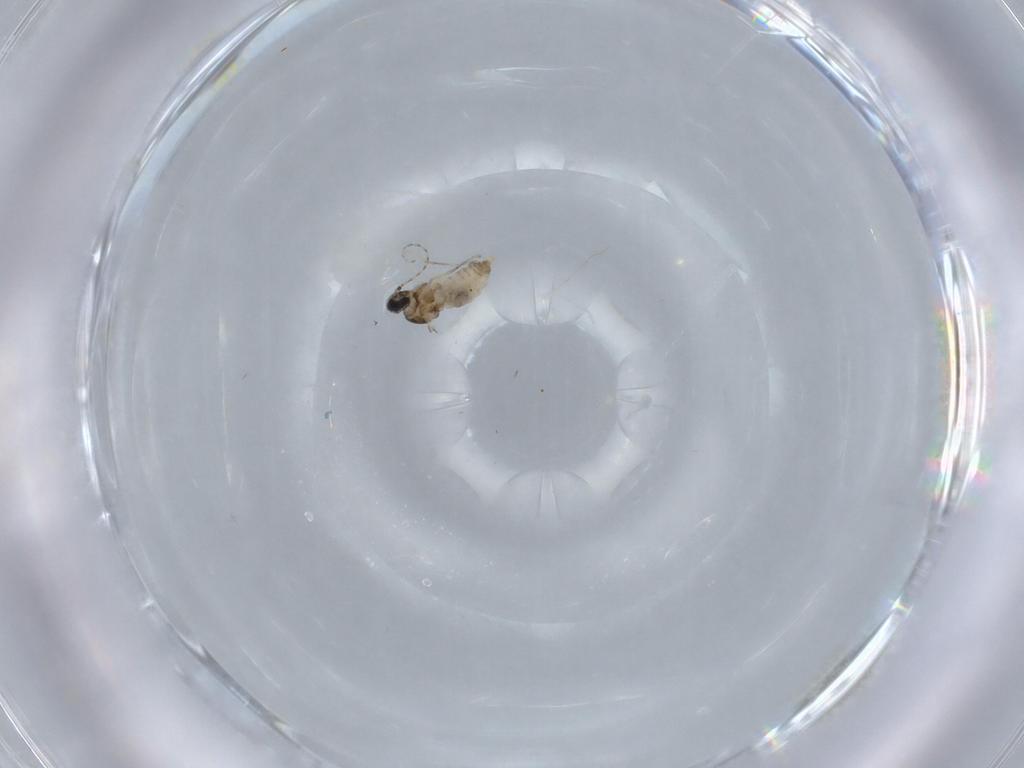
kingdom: Animalia
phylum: Arthropoda
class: Insecta
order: Diptera
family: Cecidomyiidae
